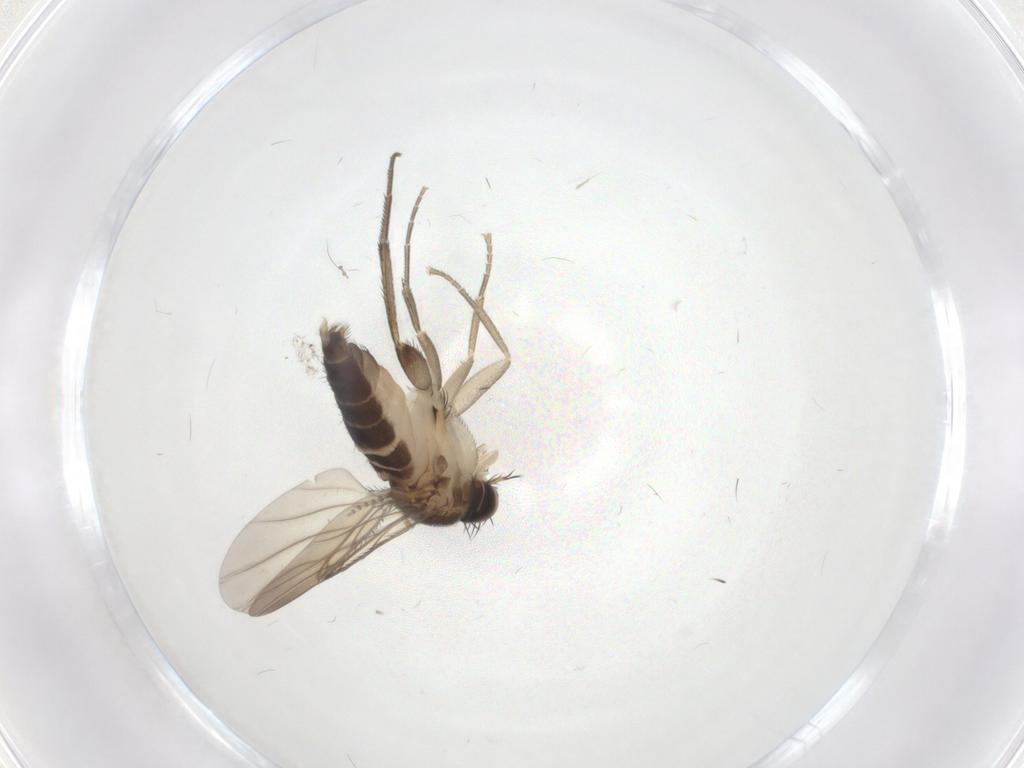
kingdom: Animalia
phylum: Arthropoda
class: Insecta
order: Diptera
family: Phoridae
